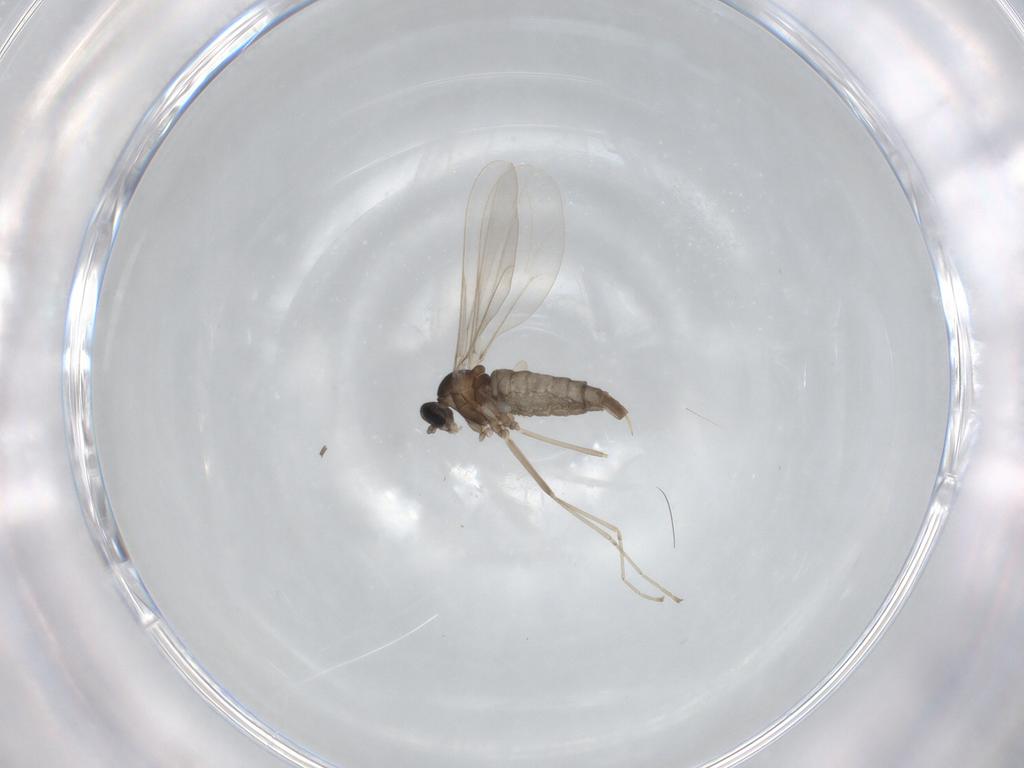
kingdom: Animalia
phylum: Arthropoda
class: Insecta
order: Diptera
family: Cecidomyiidae
